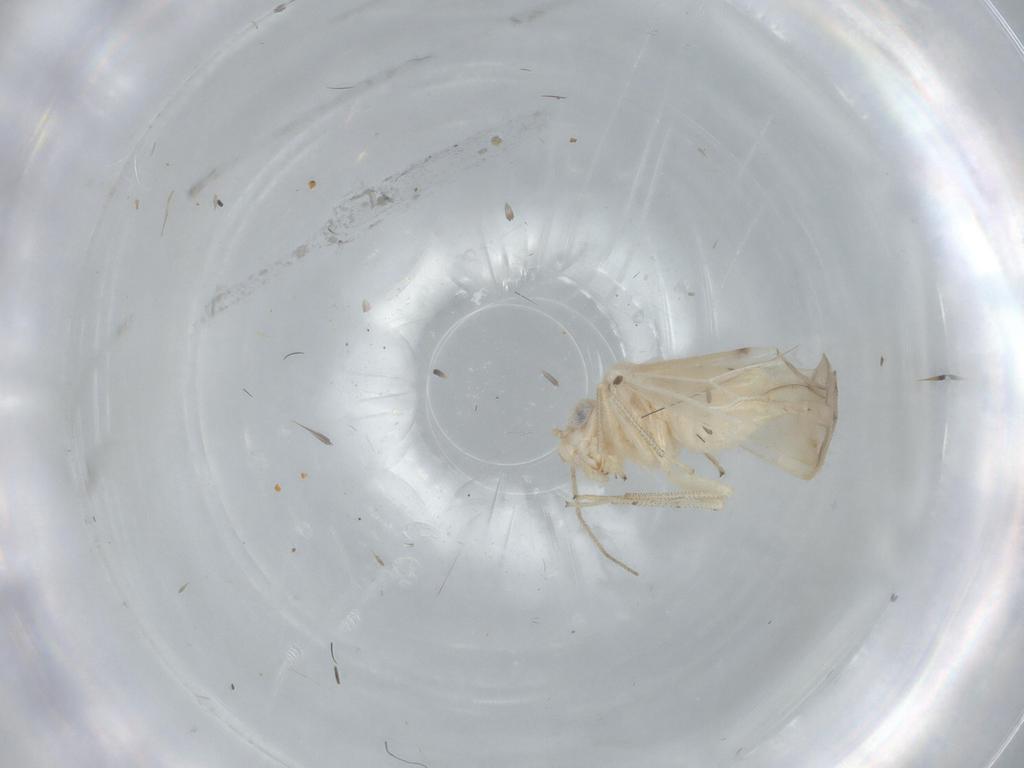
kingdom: Animalia
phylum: Arthropoda
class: Insecta
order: Psocodea
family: Caeciliusidae
